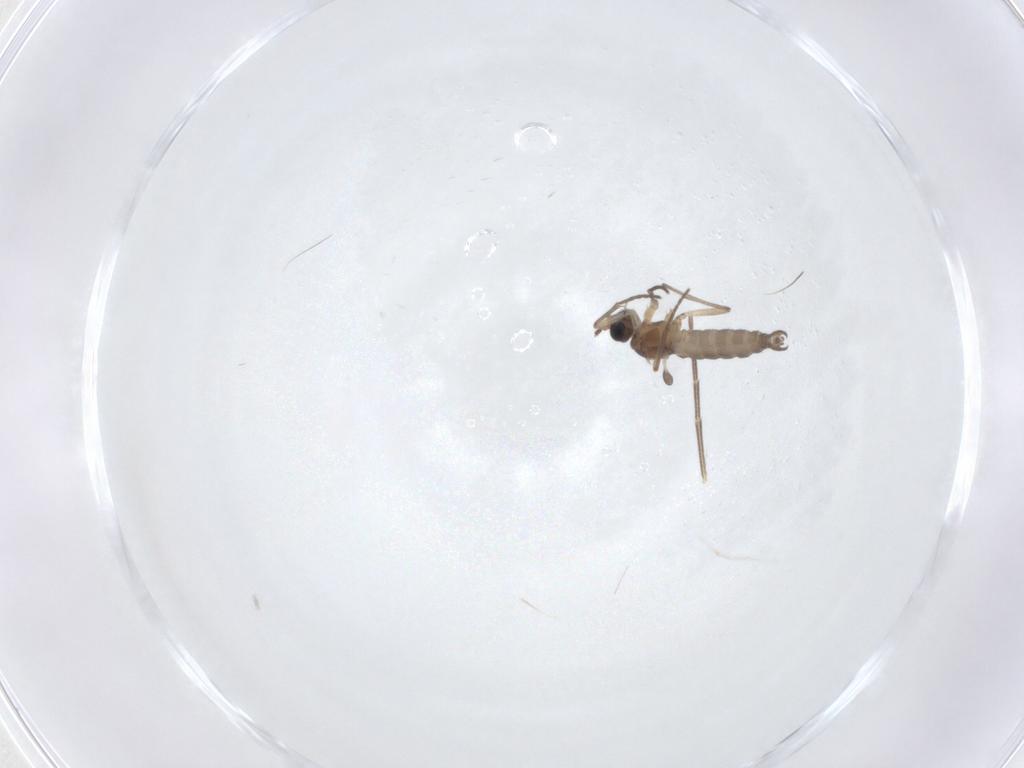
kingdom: Animalia
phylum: Arthropoda
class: Insecta
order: Diptera
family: Sciaridae
